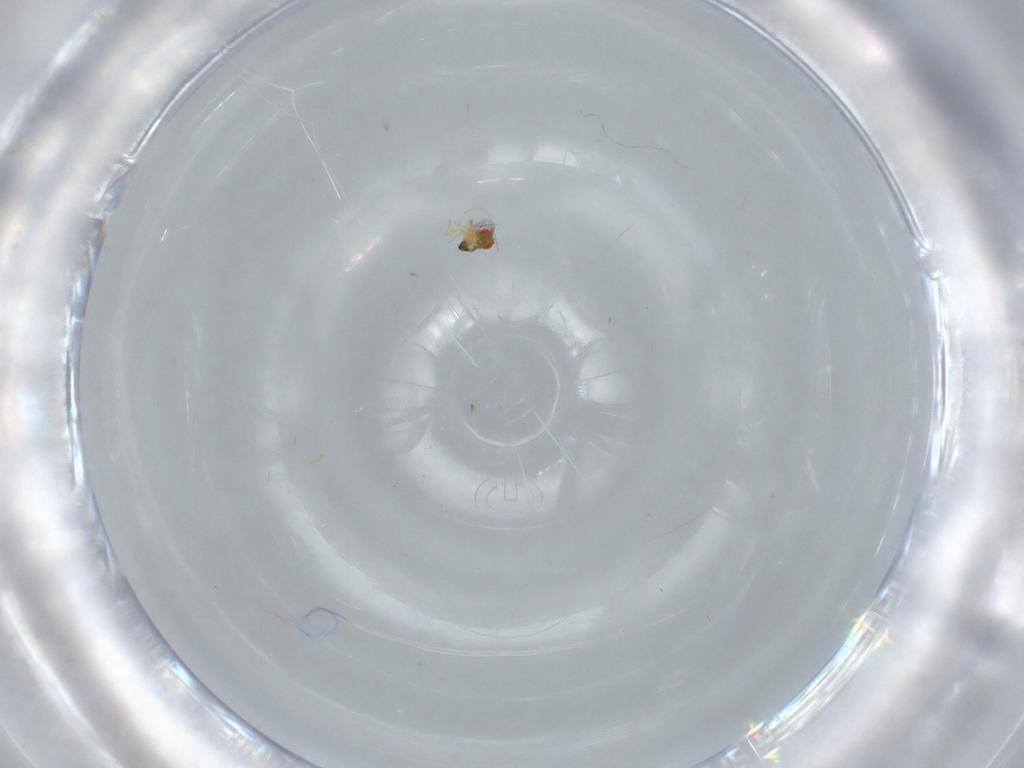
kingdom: Animalia
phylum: Arthropoda
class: Insecta
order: Hymenoptera
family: Trichogrammatidae
